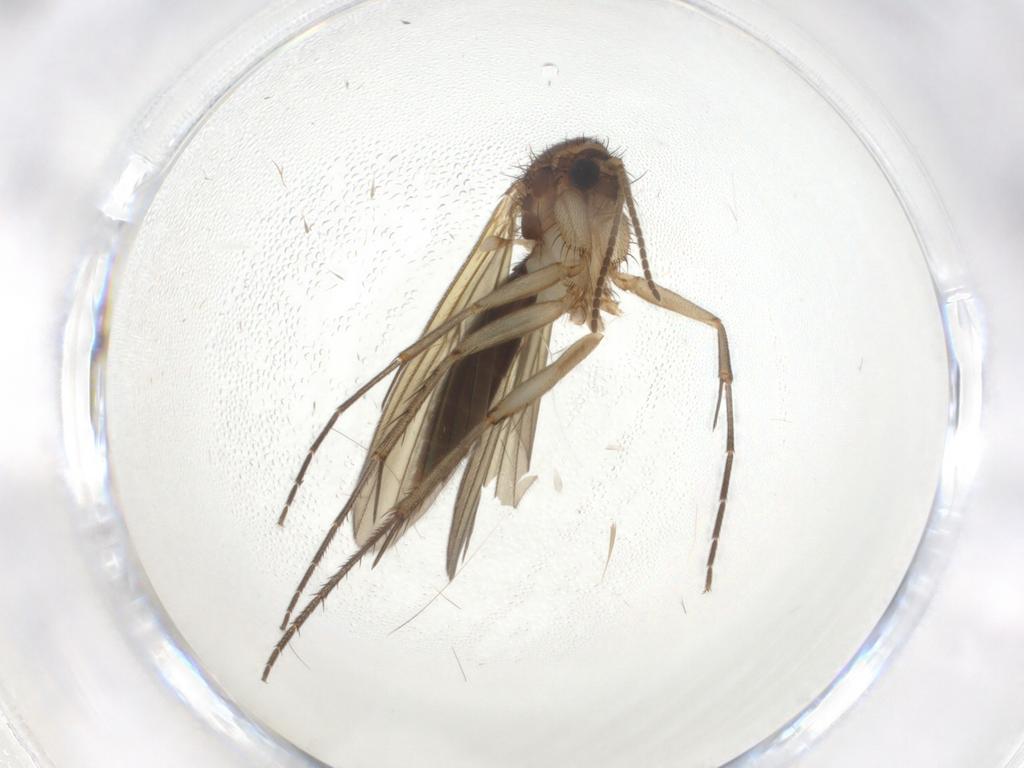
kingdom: Animalia
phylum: Arthropoda
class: Insecta
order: Diptera
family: Mycetophilidae
